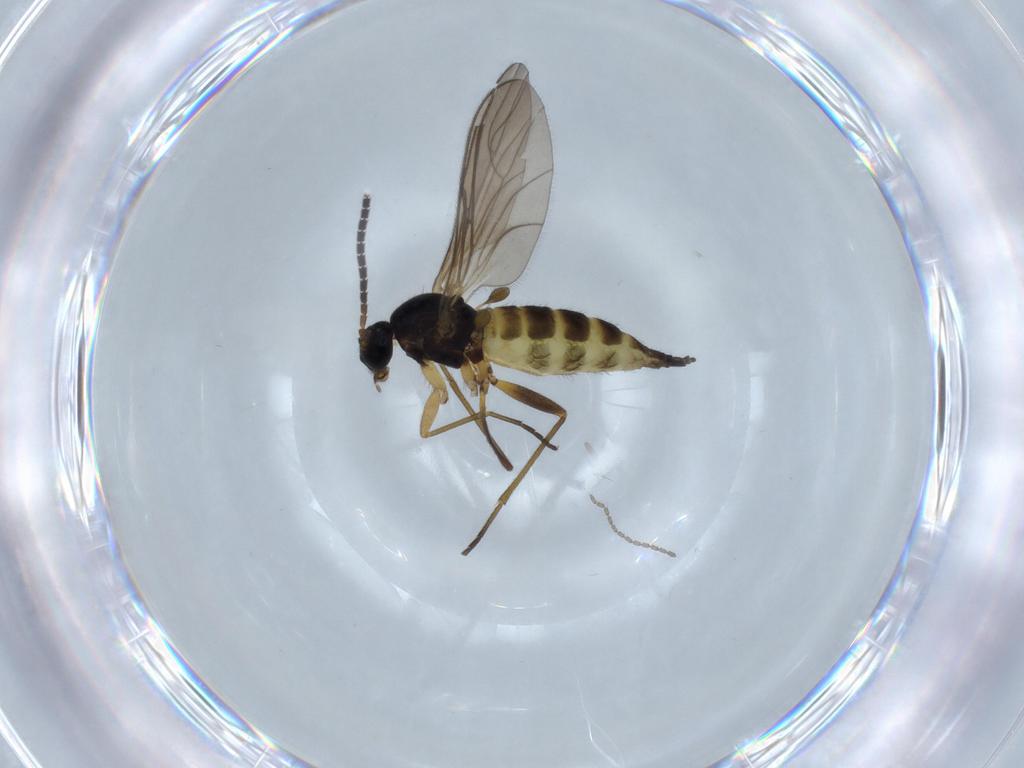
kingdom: Animalia
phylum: Arthropoda
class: Insecta
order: Diptera
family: Sciaridae
